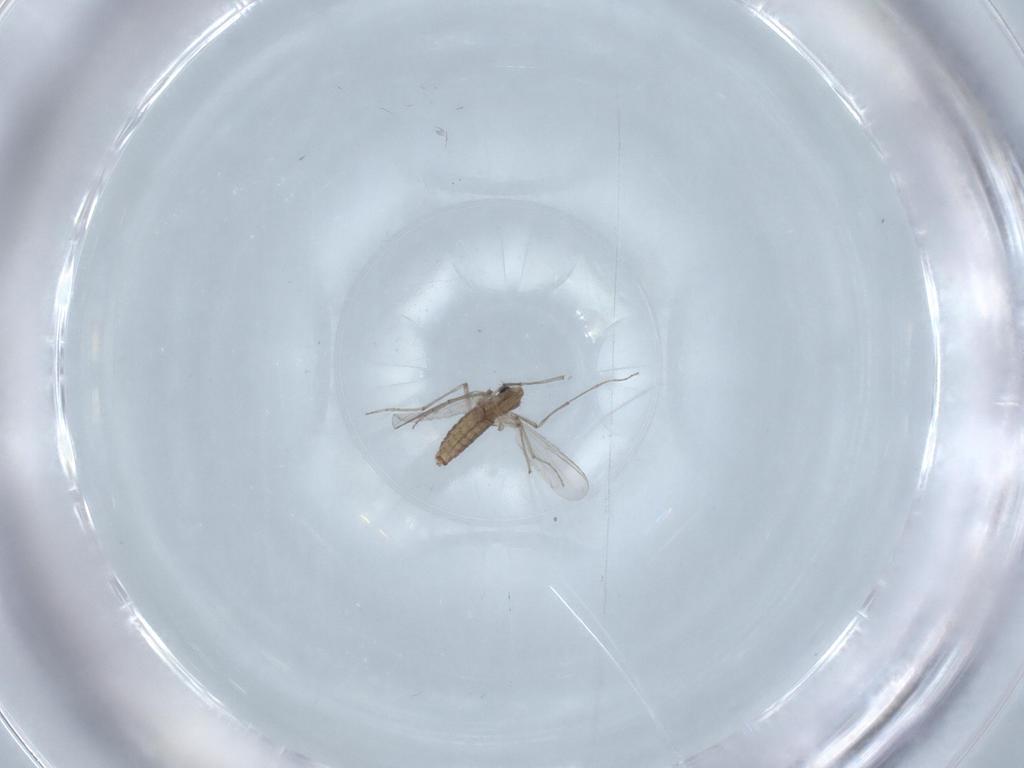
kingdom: Animalia
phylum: Arthropoda
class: Insecta
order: Diptera
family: Chironomidae
